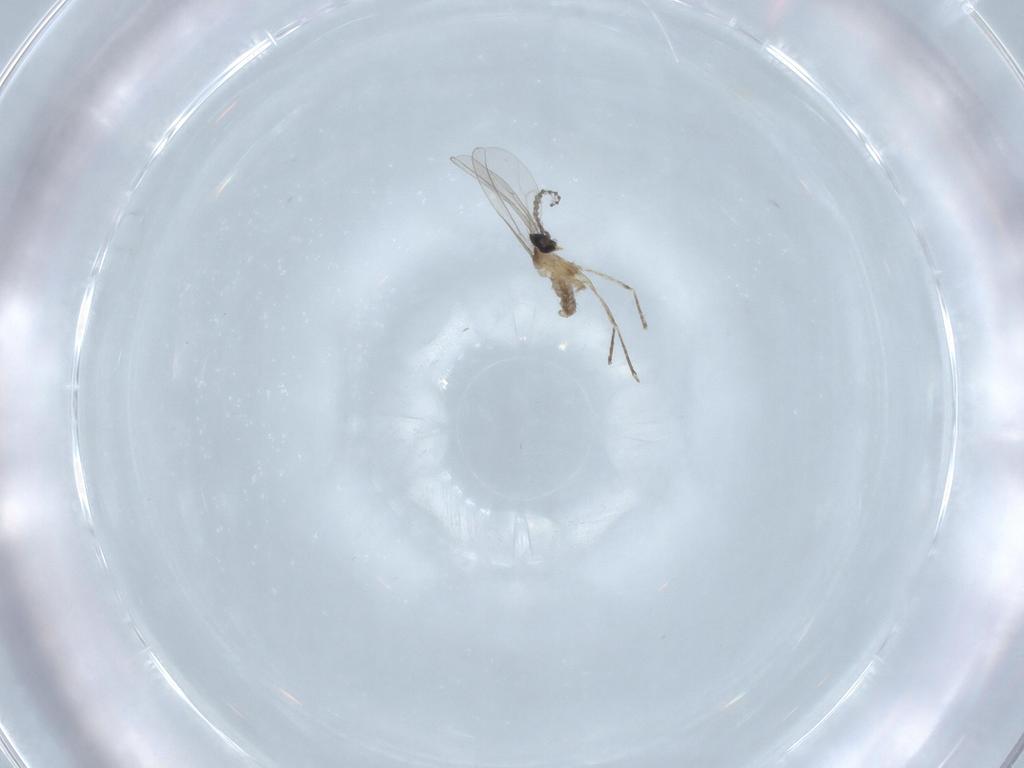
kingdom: Animalia
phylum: Arthropoda
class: Insecta
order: Diptera
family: Cecidomyiidae
